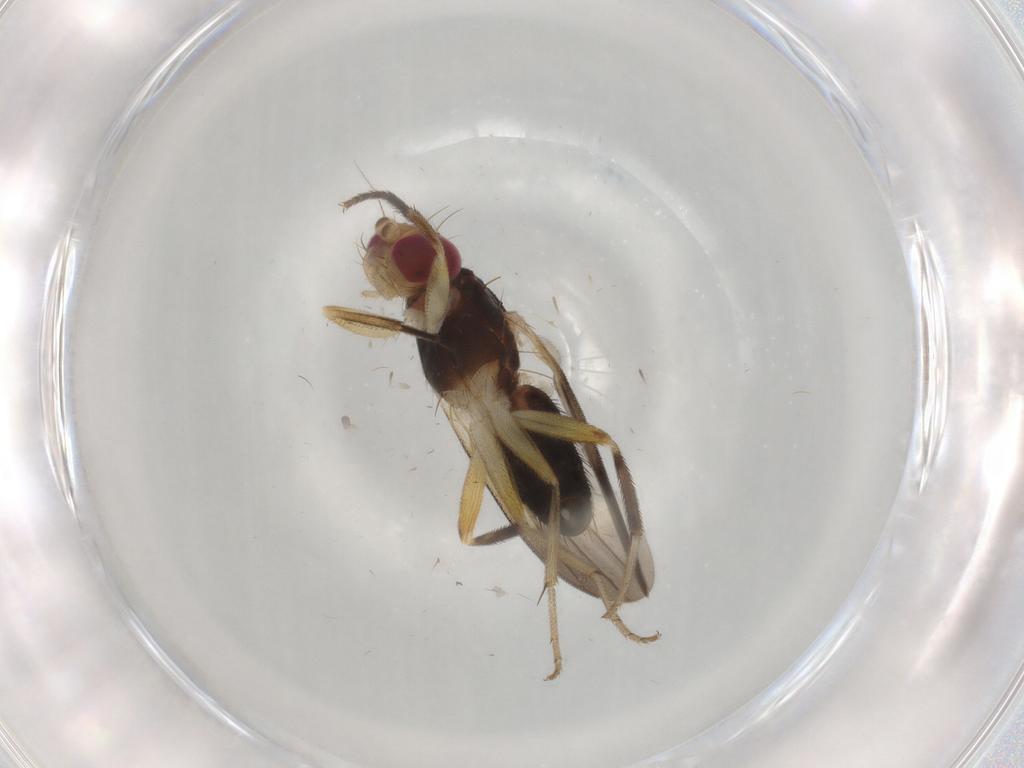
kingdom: Animalia
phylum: Arthropoda
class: Insecta
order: Diptera
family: Clusiidae
